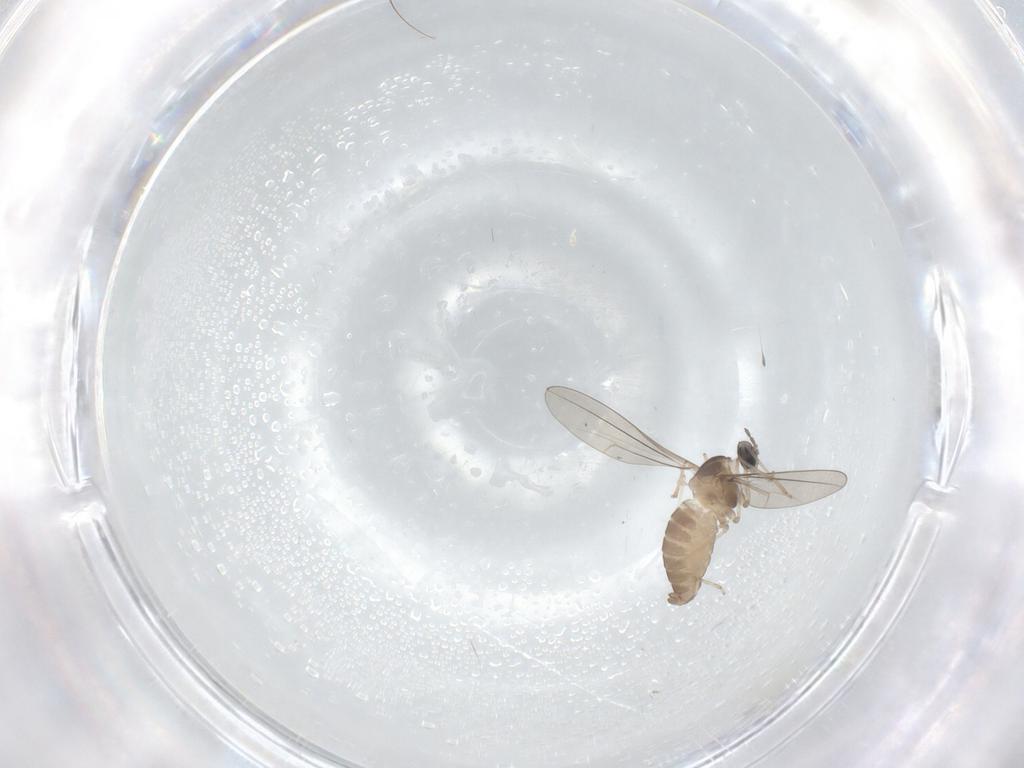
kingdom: Animalia
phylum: Arthropoda
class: Insecta
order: Diptera
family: Cecidomyiidae
